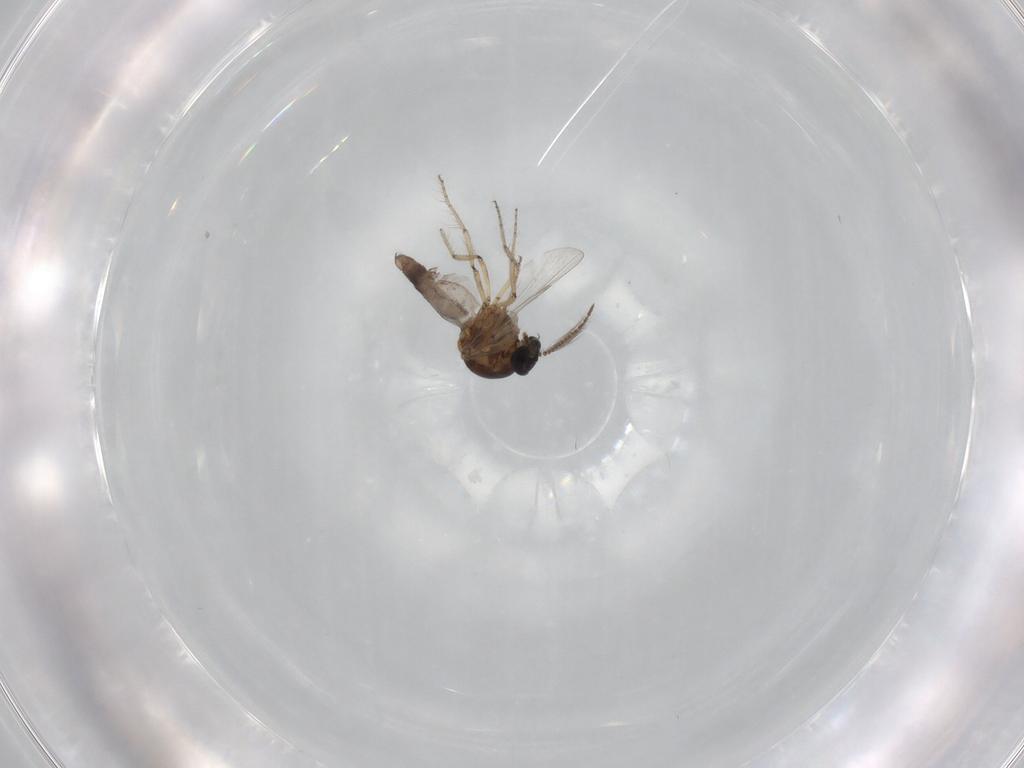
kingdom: Animalia
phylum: Arthropoda
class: Insecta
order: Diptera
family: Ceratopogonidae
